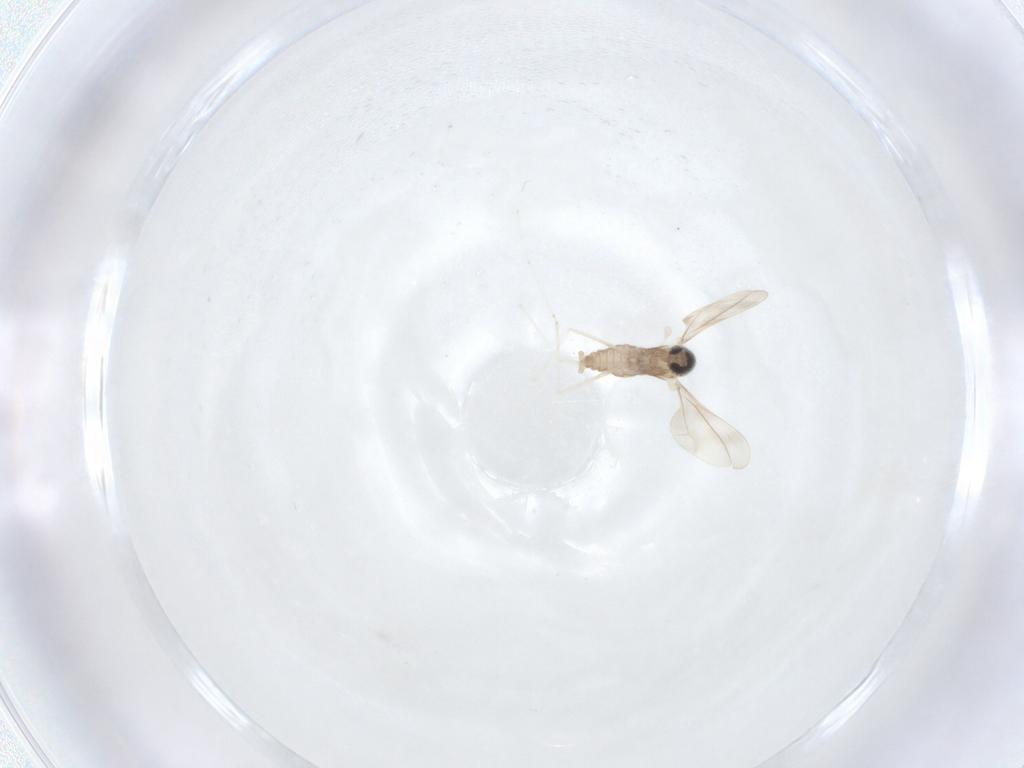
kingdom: Animalia
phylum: Arthropoda
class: Insecta
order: Diptera
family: Cecidomyiidae
